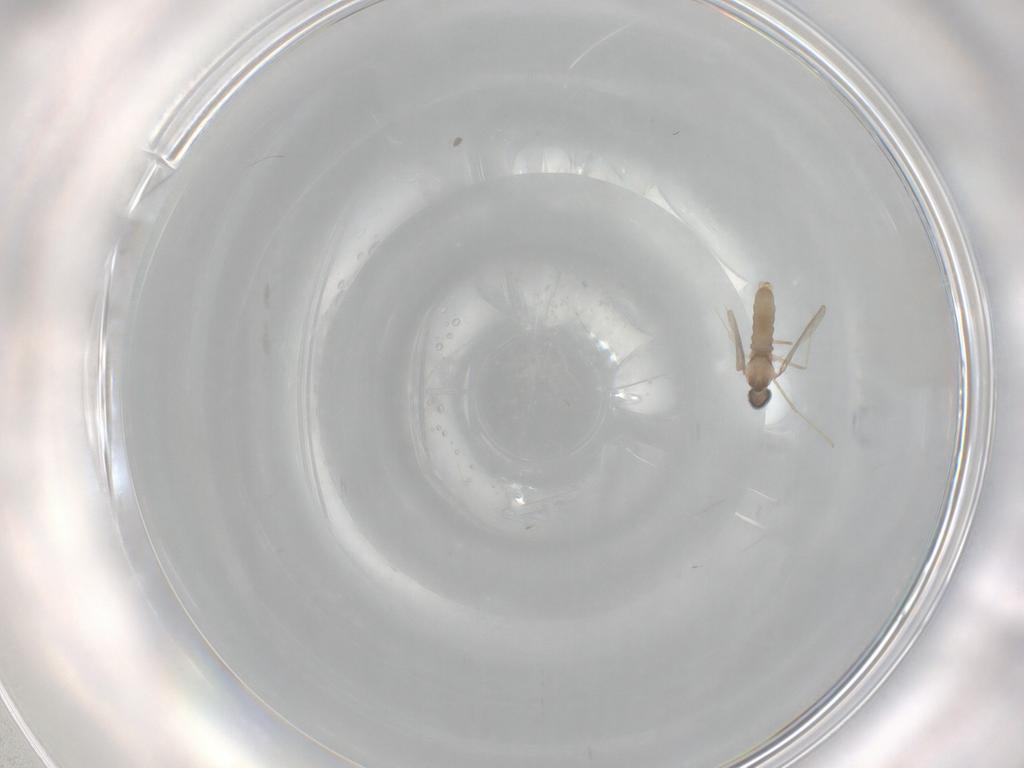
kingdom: Animalia
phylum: Arthropoda
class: Insecta
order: Diptera
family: Cecidomyiidae
